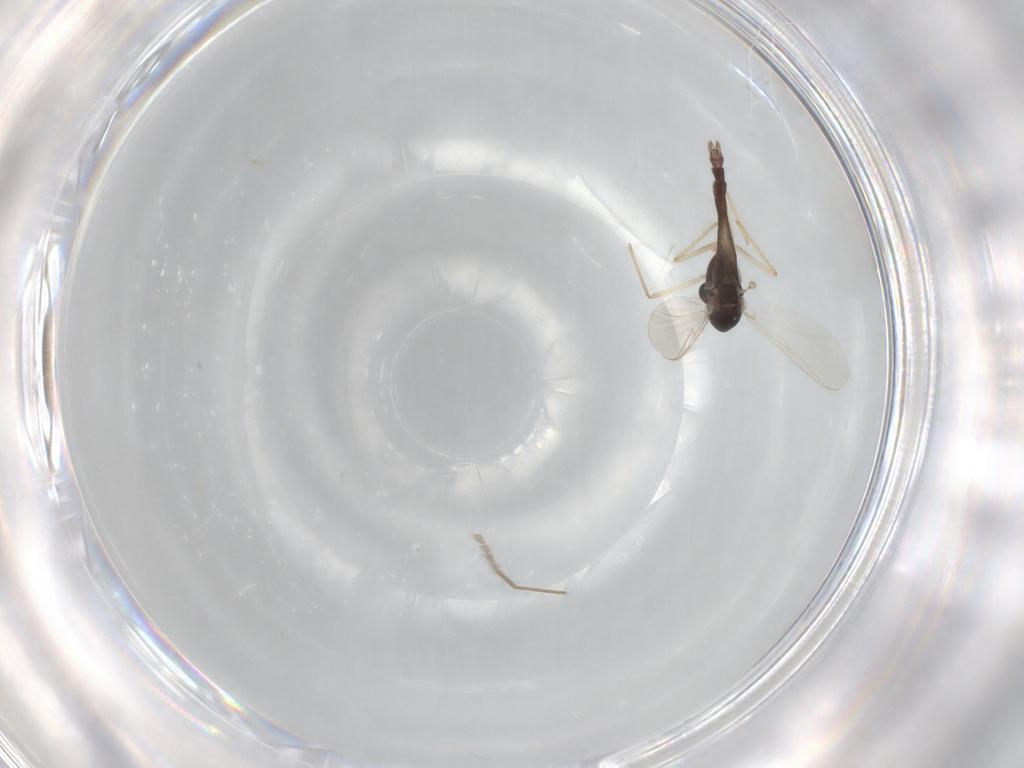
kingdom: Animalia
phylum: Arthropoda
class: Insecta
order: Diptera
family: Chironomidae
